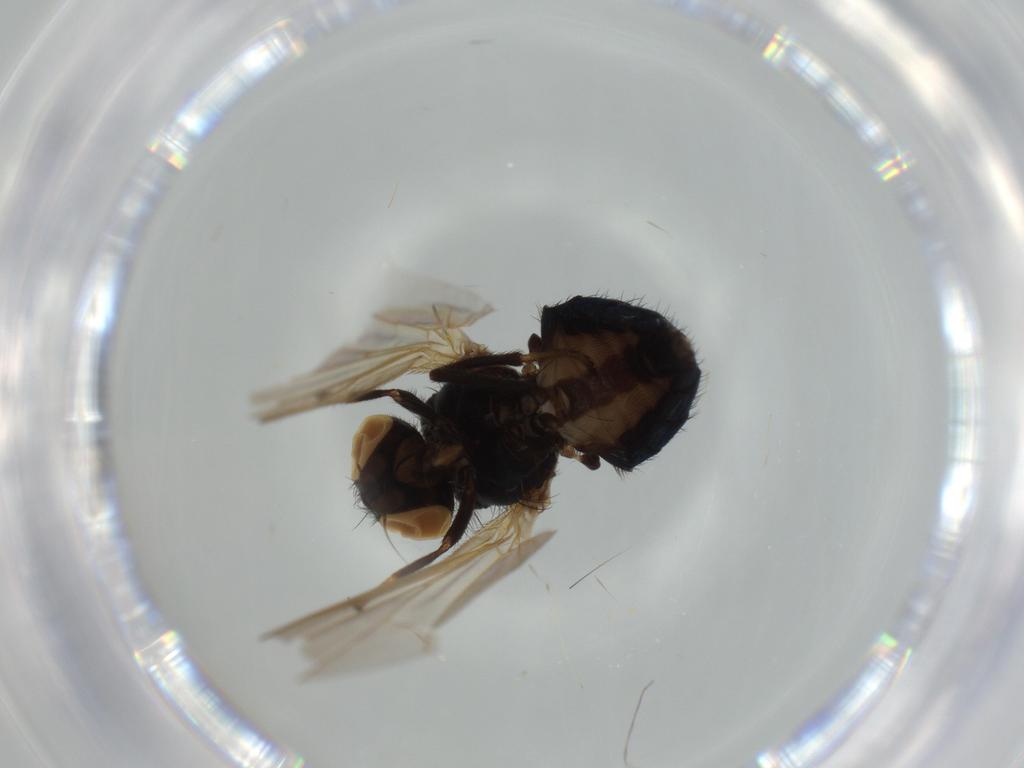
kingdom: Animalia
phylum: Arthropoda
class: Insecta
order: Diptera
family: Lonchaeidae
